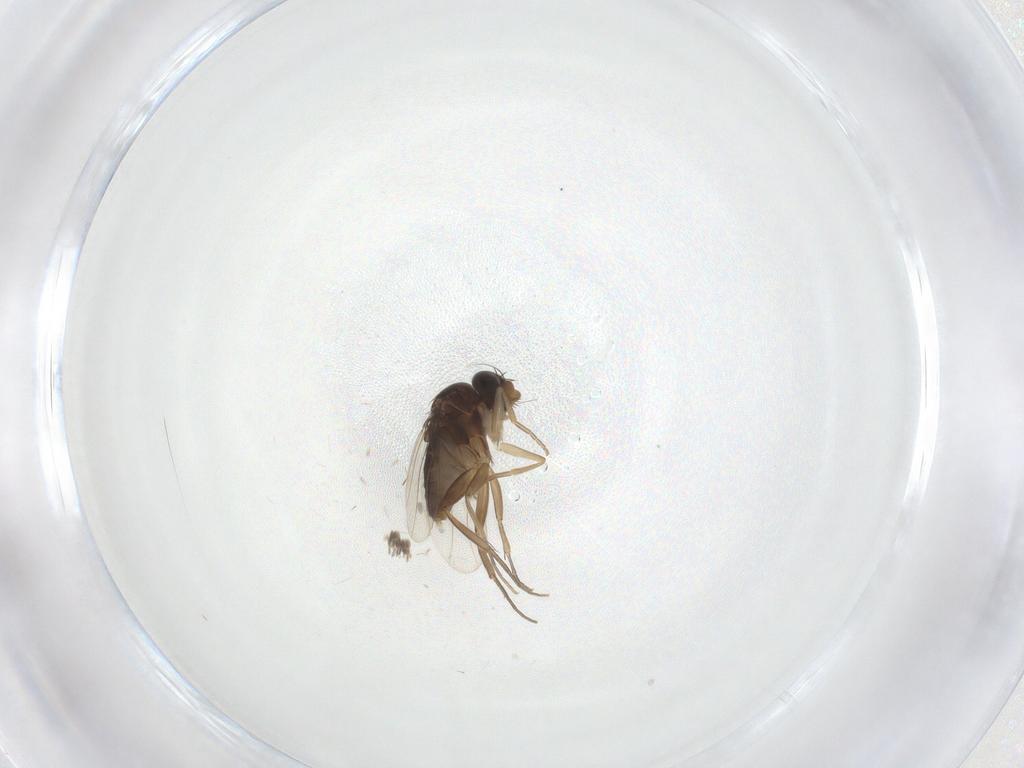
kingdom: Animalia
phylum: Arthropoda
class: Insecta
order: Diptera
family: Phoridae
